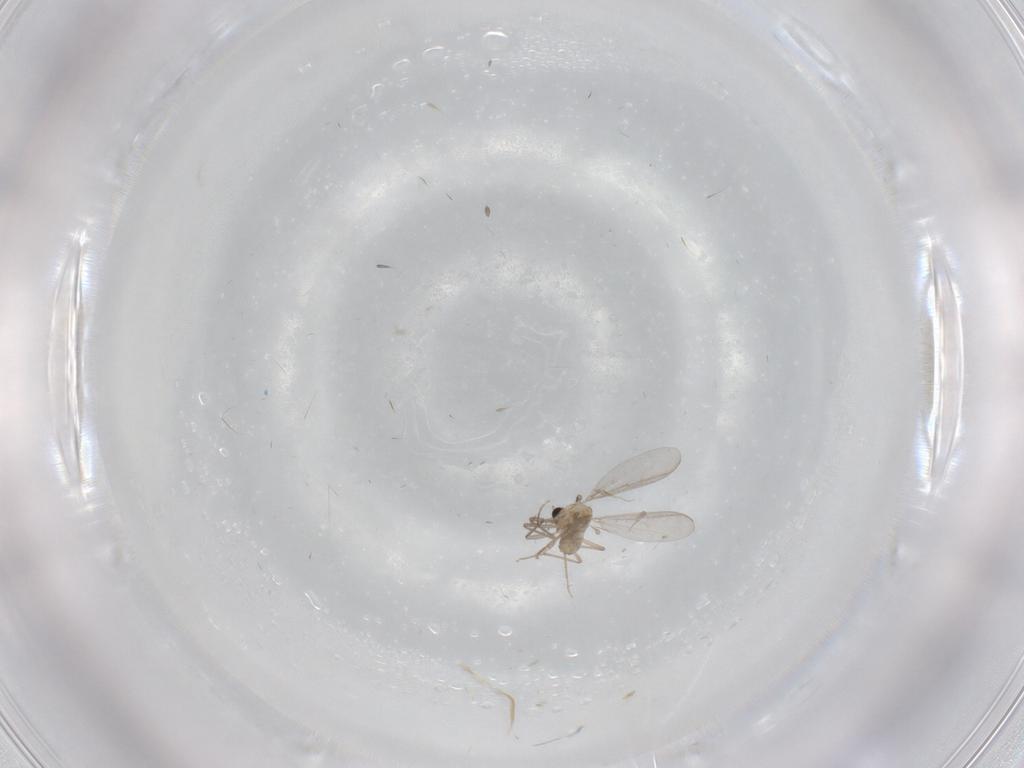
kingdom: Animalia
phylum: Arthropoda
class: Insecta
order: Diptera
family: Chironomidae
